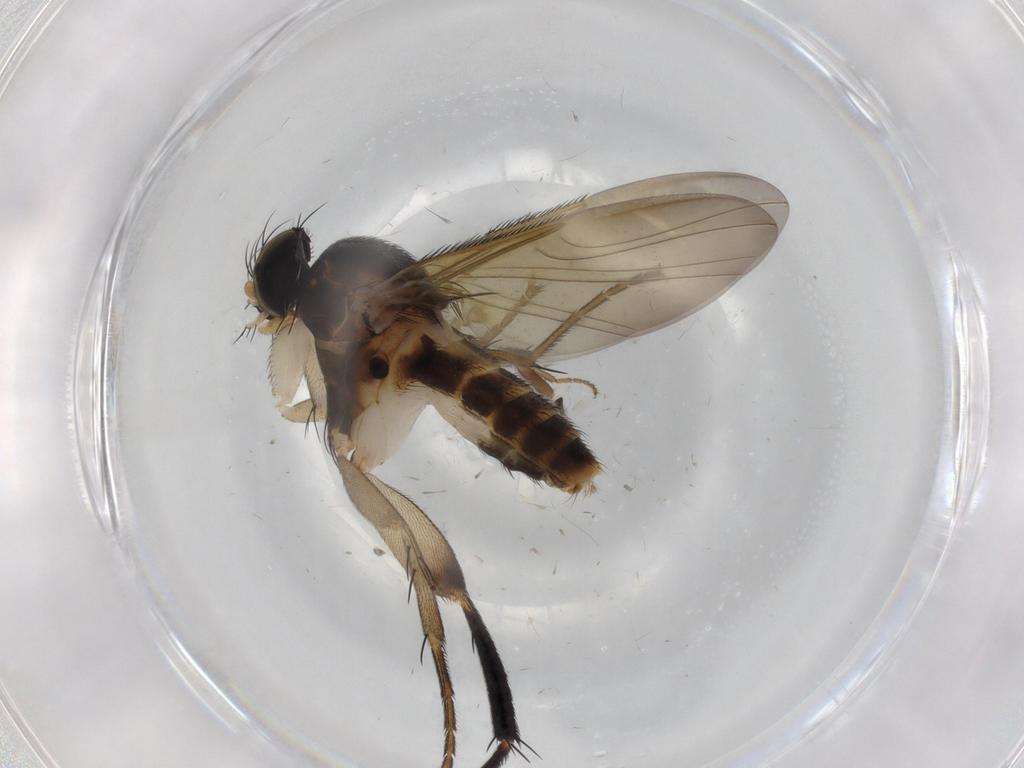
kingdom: Animalia
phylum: Arthropoda
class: Insecta
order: Diptera
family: Phoridae
